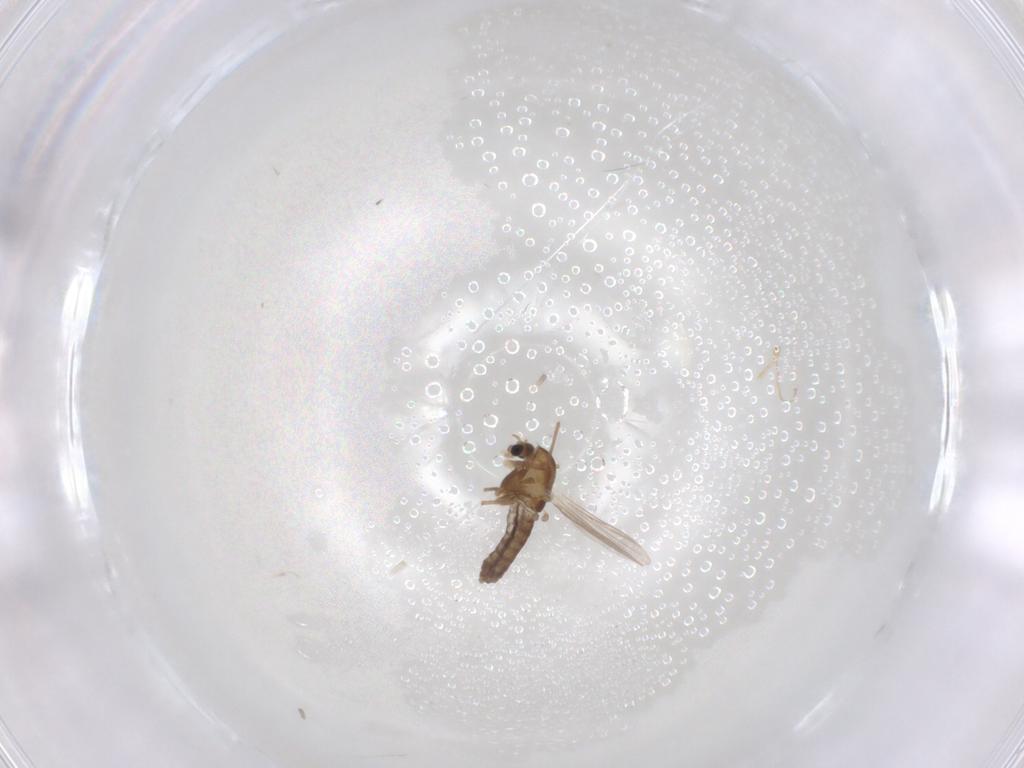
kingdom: Animalia
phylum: Arthropoda
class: Insecta
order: Diptera
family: Chironomidae
